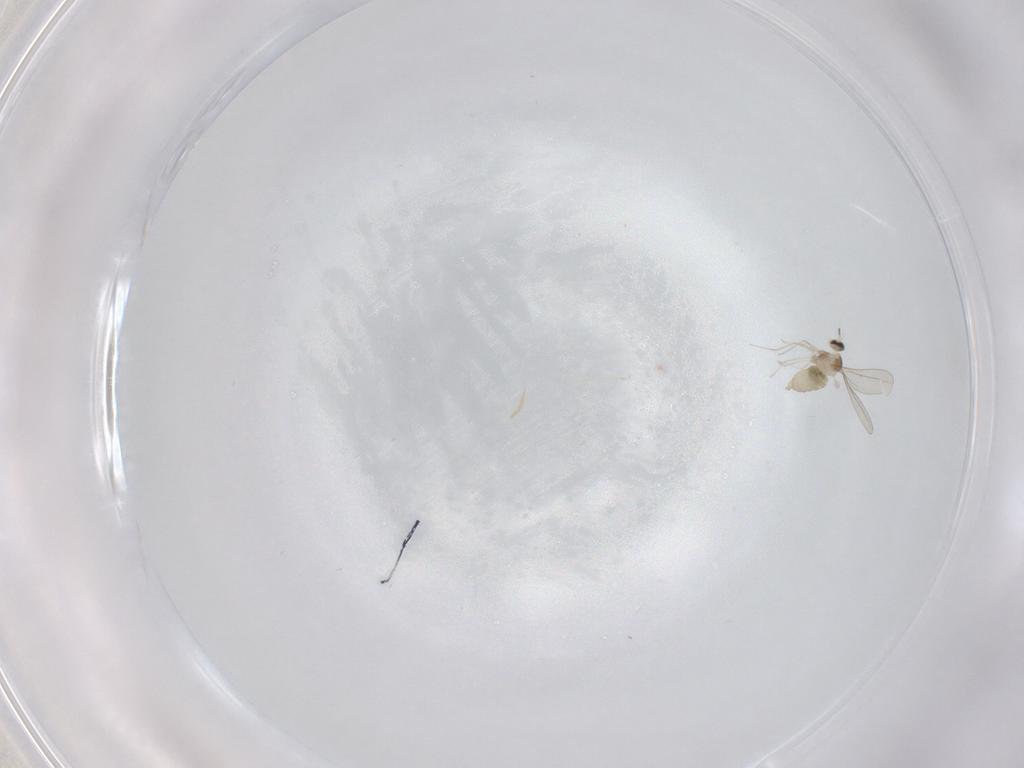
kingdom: Animalia
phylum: Arthropoda
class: Insecta
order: Diptera
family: Cecidomyiidae
